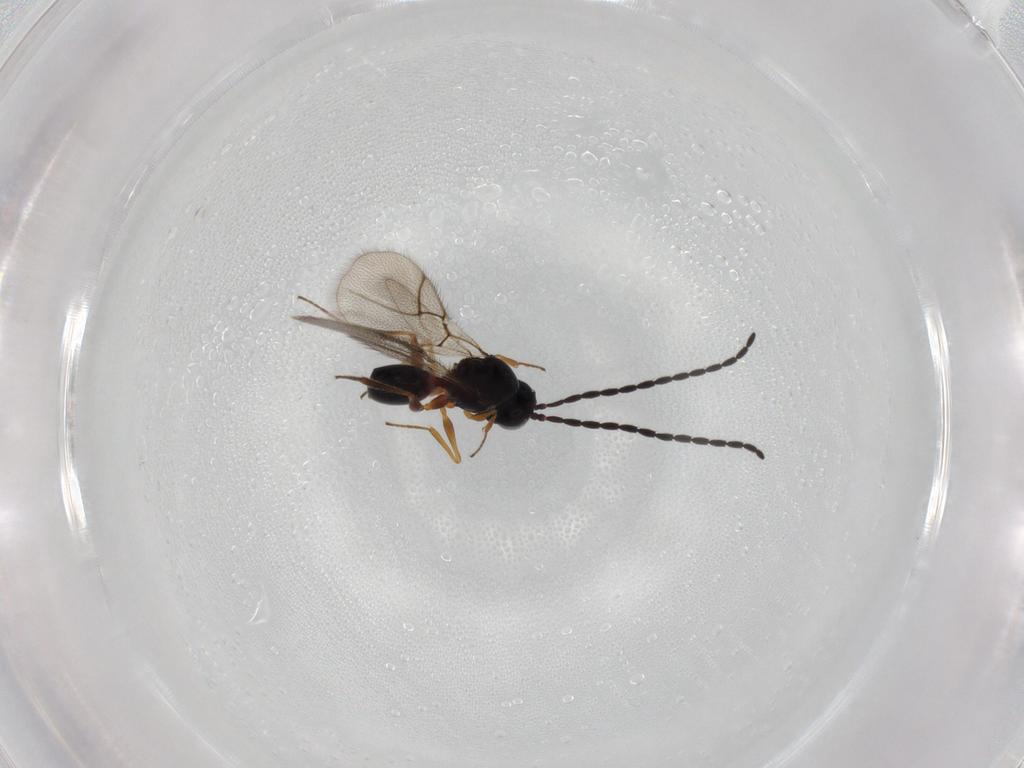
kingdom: Animalia
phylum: Arthropoda
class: Insecta
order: Hymenoptera
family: Figitidae
